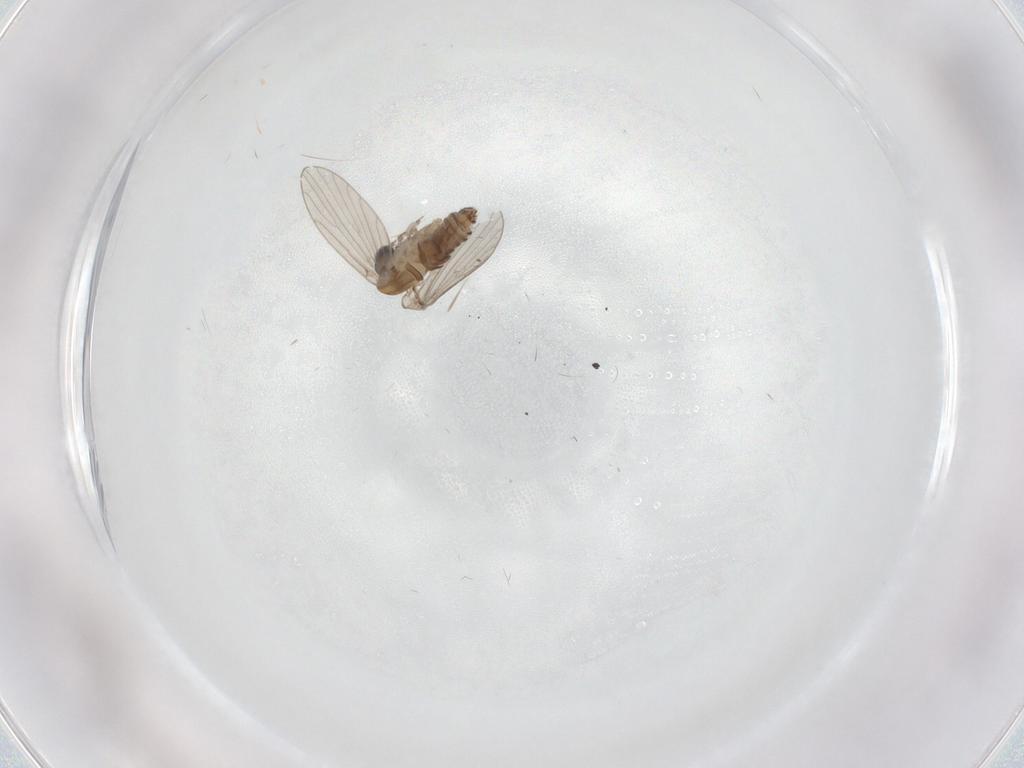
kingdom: Animalia
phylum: Arthropoda
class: Insecta
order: Diptera
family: Psychodidae
